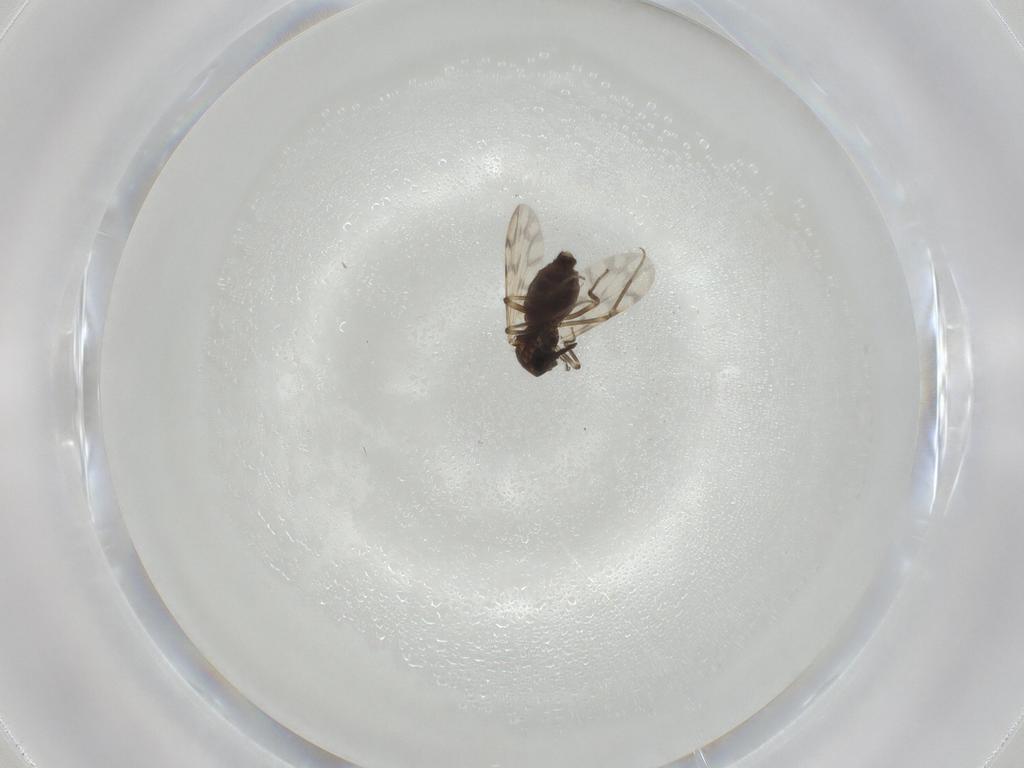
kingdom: Animalia
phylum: Arthropoda
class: Insecta
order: Diptera
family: Ceratopogonidae
